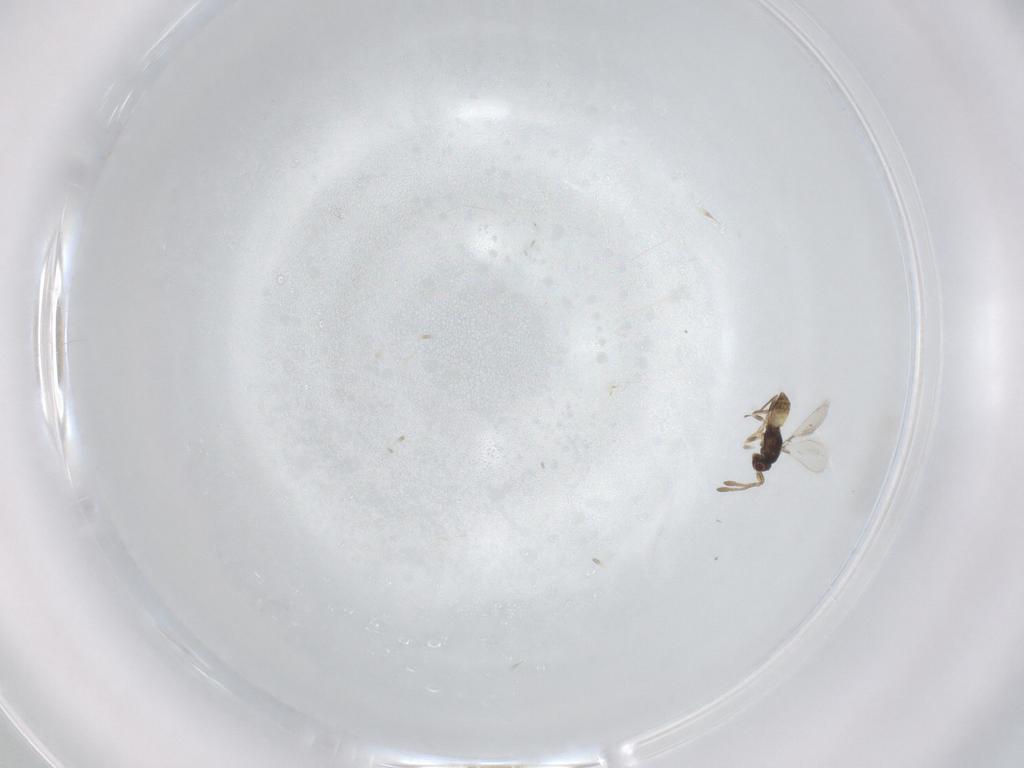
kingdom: Animalia
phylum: Arthropoda
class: Insecta
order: Hymenoptera
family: Mymaridae
